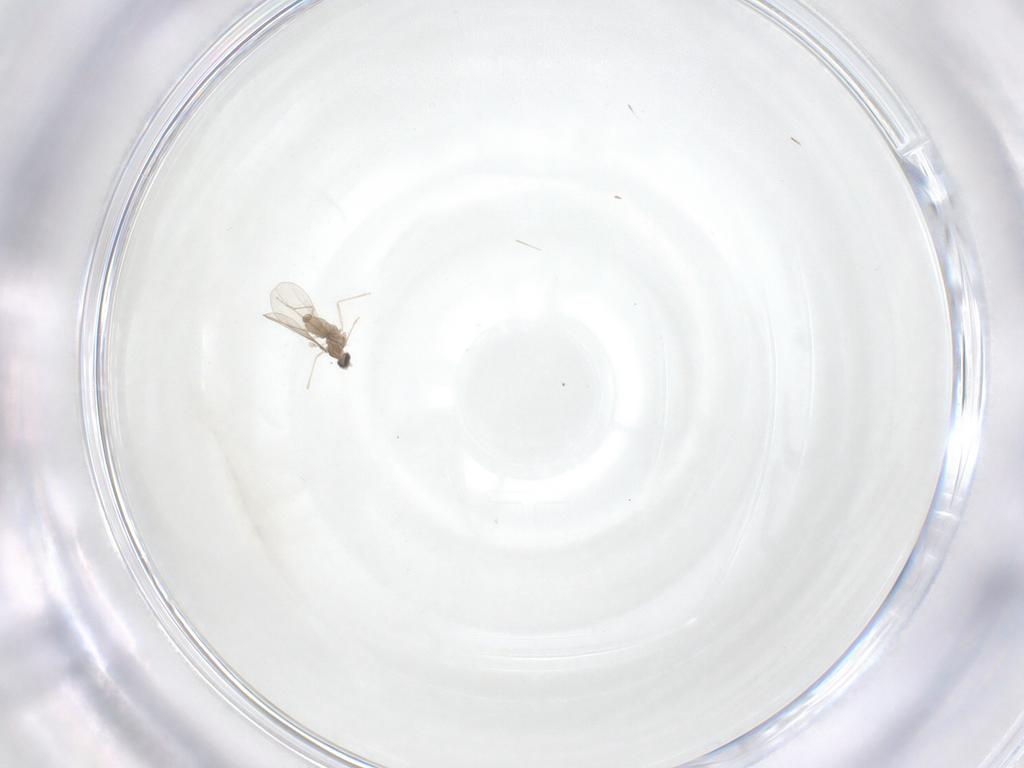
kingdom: Animalia
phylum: Arthropoda
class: Insecta
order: Diptera
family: Cecidomyiidae
